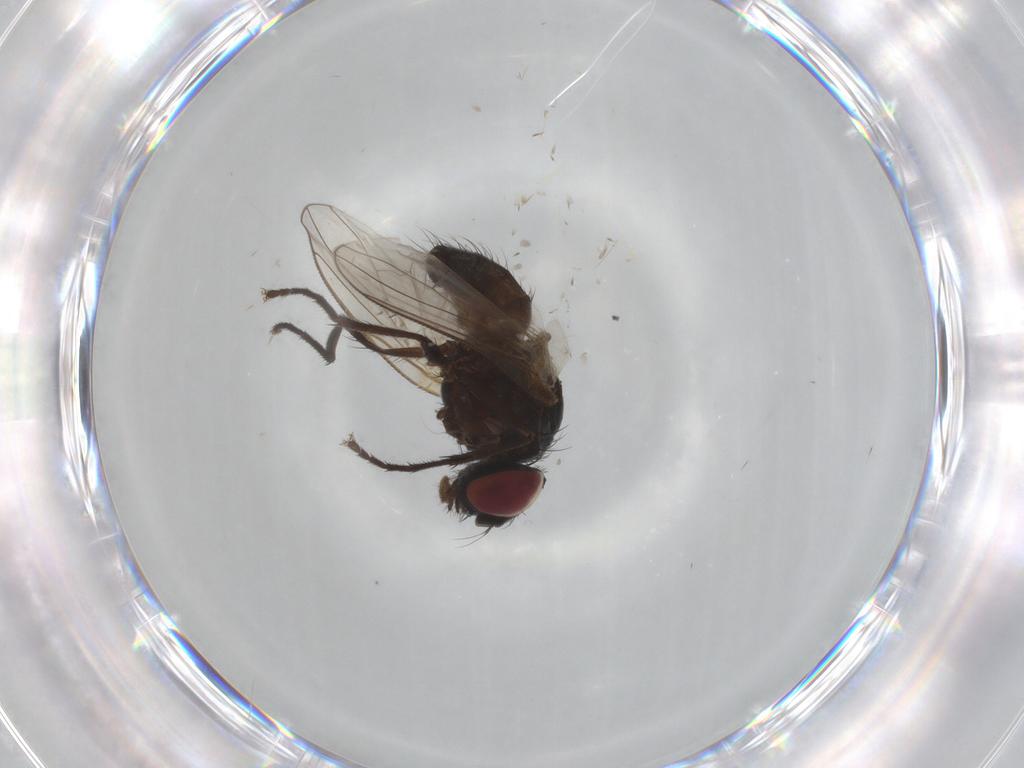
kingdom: Animalia
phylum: Arthropoda
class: Insecta
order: Diptera
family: Muscidae
